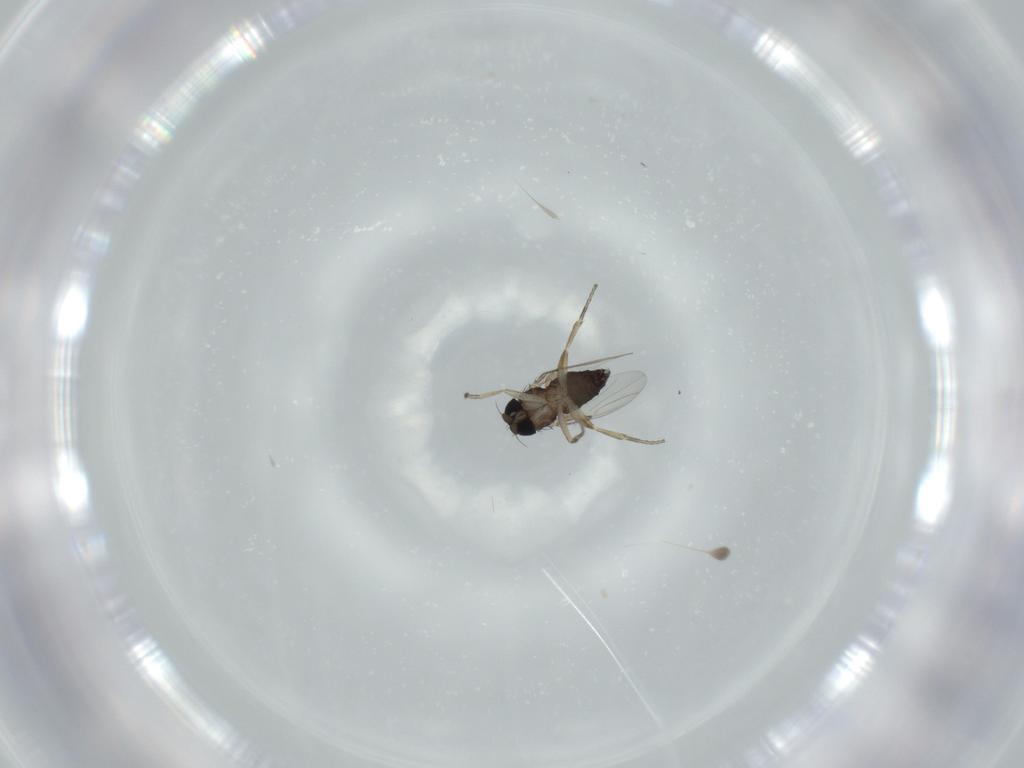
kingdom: Animalia
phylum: Arthropoda
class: Insecta
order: Diptera
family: Phoridae
